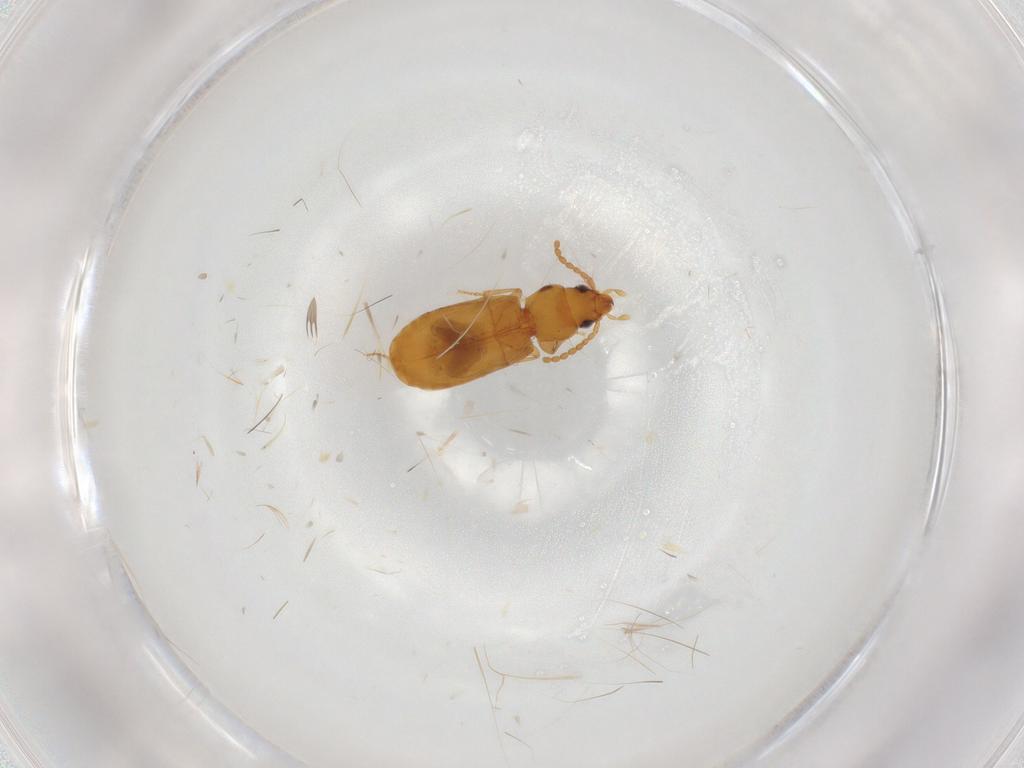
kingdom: Animalia
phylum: Arthropoda
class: Insecta
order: Coleoptera
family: Carabidae
